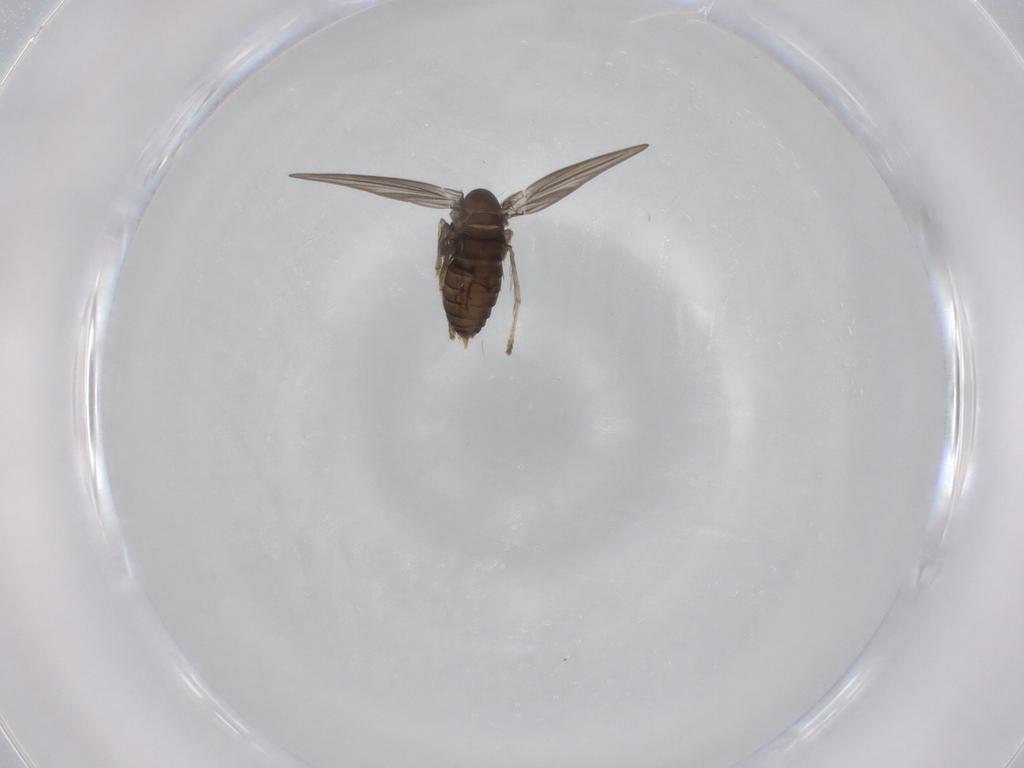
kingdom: Animalia
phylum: Arthropoda
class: Insecta
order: Diptera
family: Psychodidae
